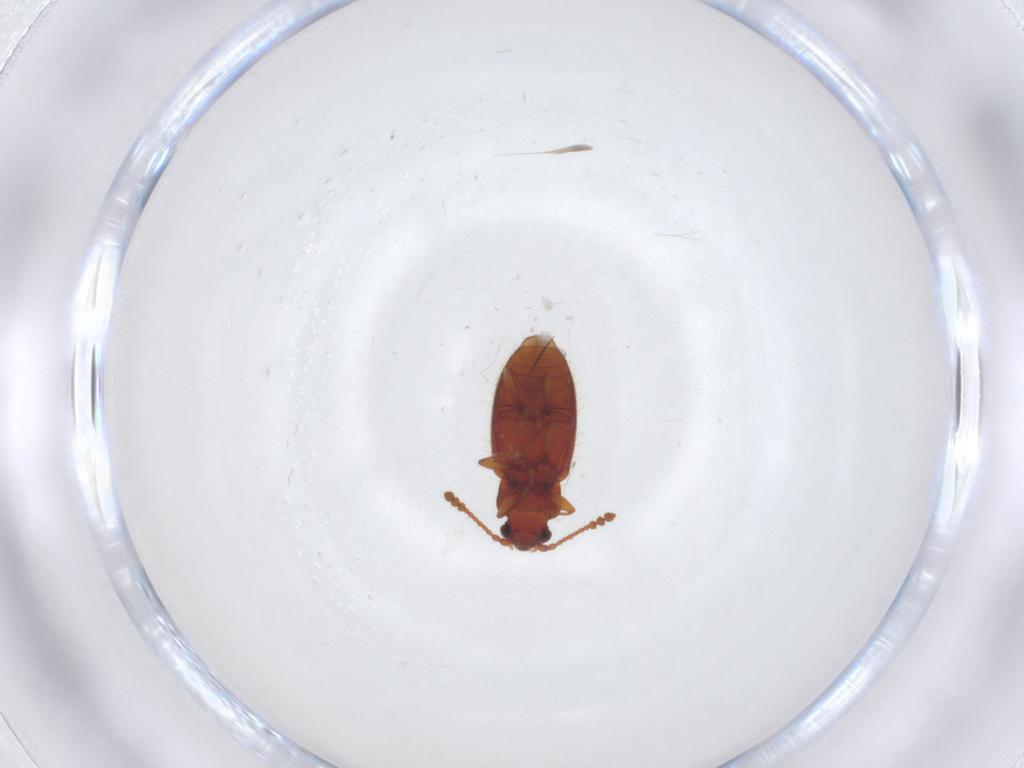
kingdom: Animalia
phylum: Arthropoda
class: Insecta
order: Coleoptera
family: Cryptophagidae
